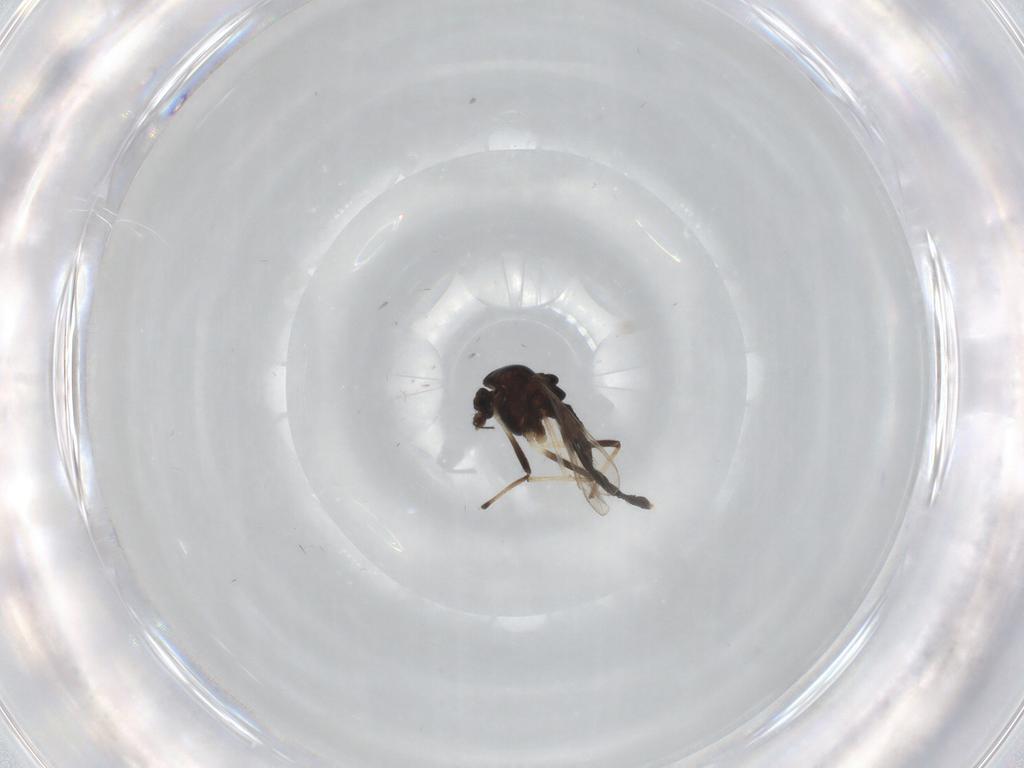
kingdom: Animalia
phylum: Arthropoda
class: Insecta
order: Diptera
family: Chironomidae
